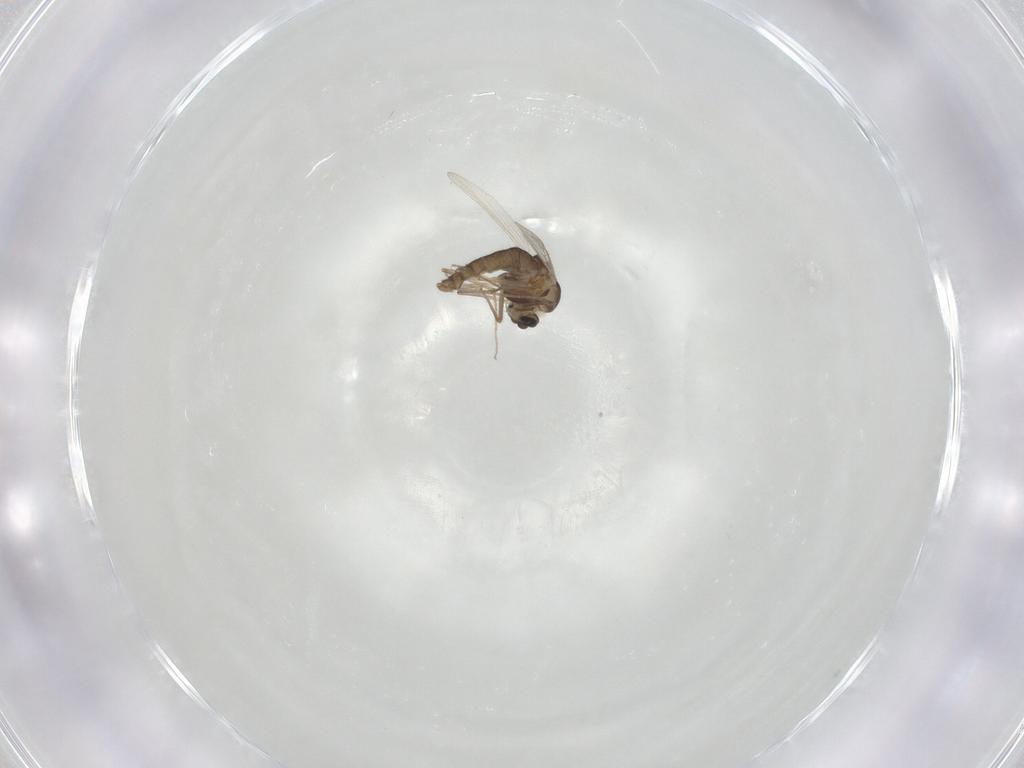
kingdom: Animalia
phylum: Arthropoda
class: Insecta
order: Diptera
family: Chironomidae
